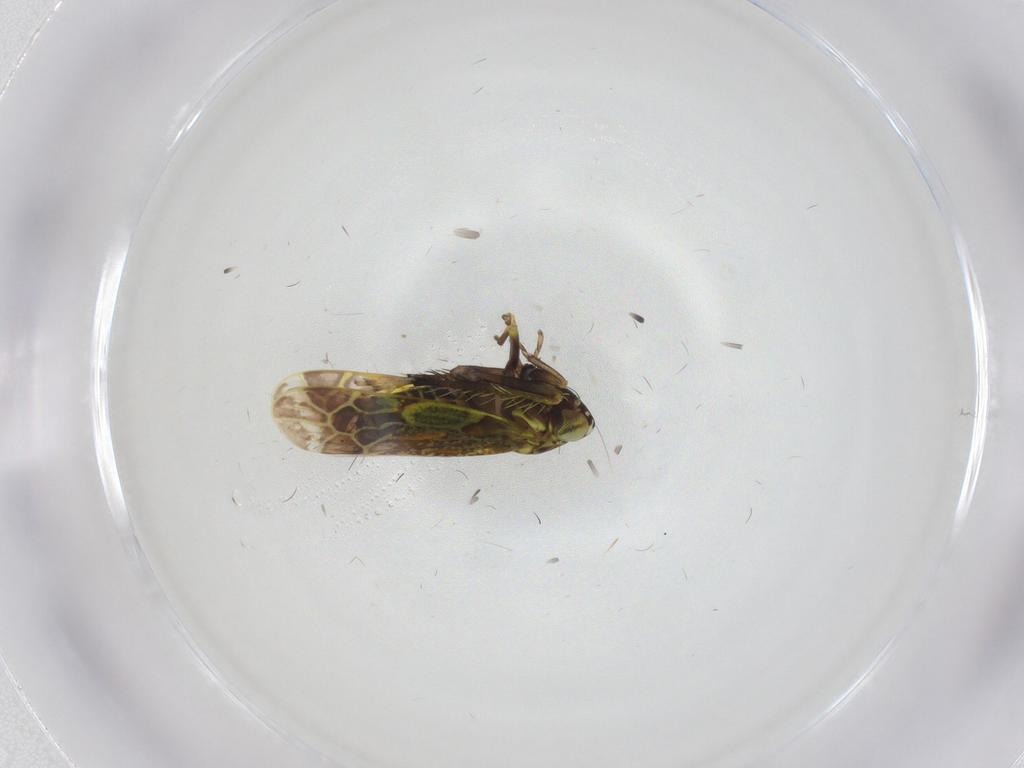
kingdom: Animalia
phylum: Arthropoda
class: Insecta
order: Hemiptera
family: Cicadellidae
